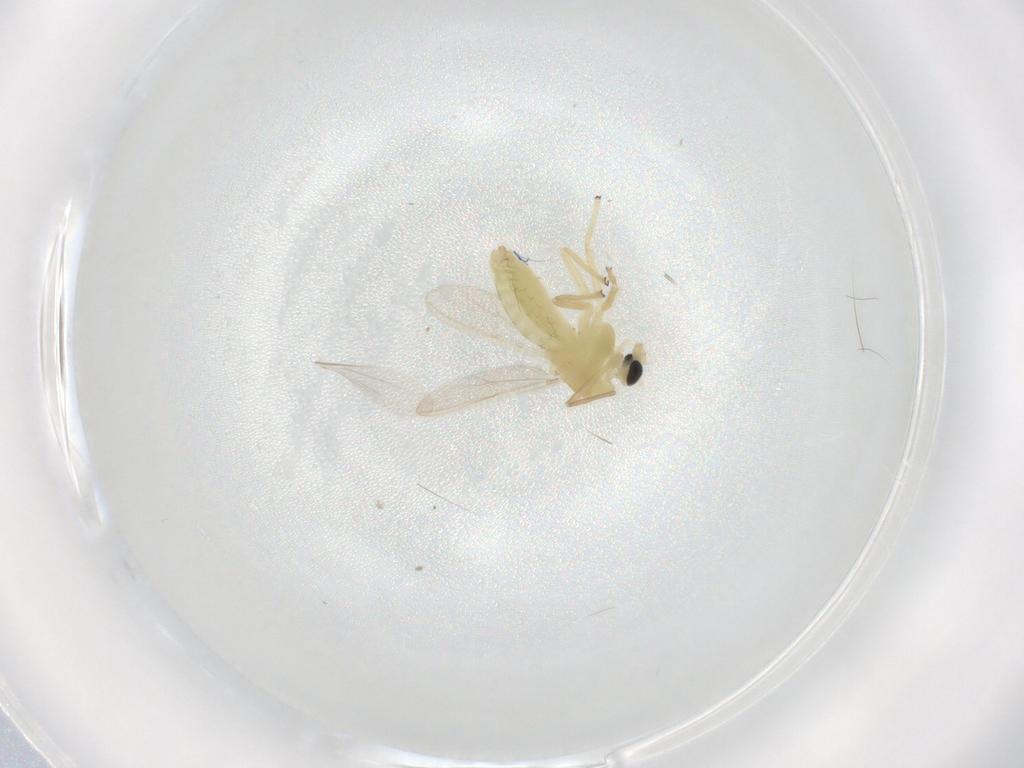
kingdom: Animalia
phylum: Arthropoda
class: Insecta
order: Diptera
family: Chironomidae
